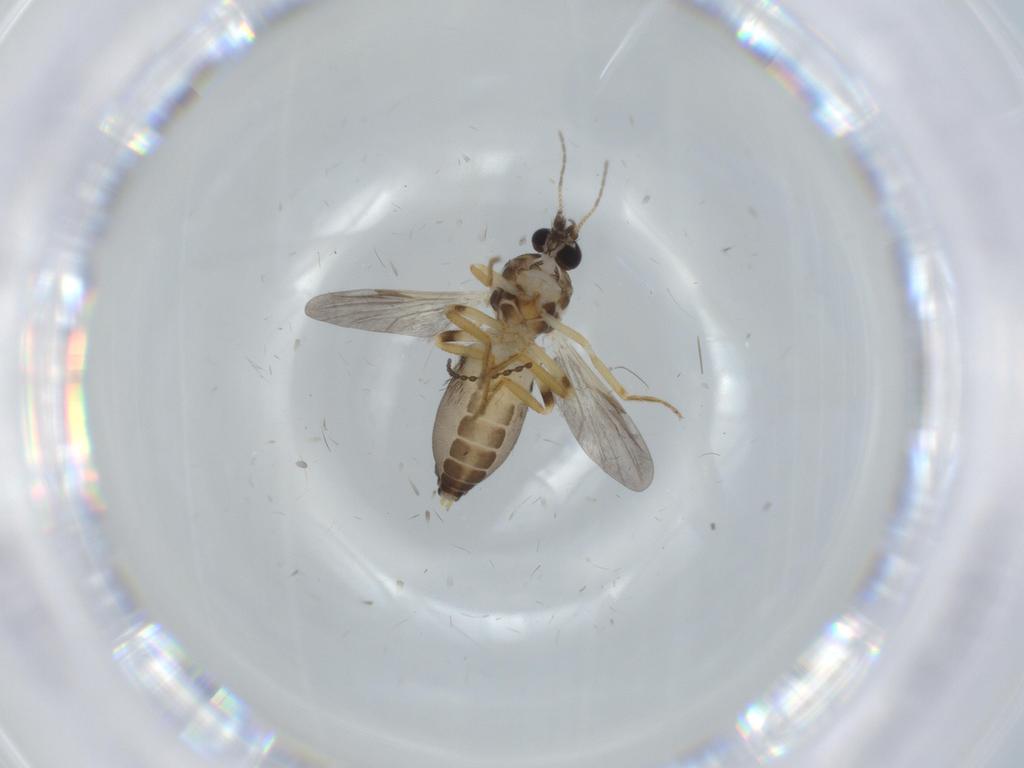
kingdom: Animalia
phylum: Arthropoda
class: Insecta
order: Diptera
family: Ceratopogonidae
